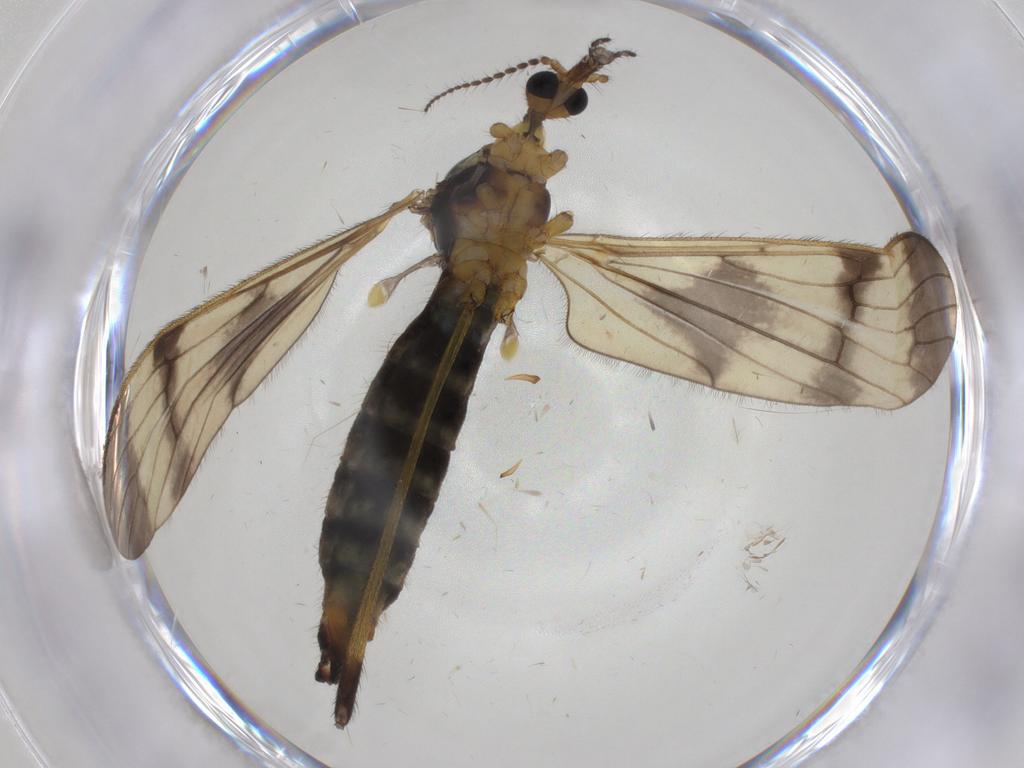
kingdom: Animalia
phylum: Arthropoda
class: Insecta
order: Diptera
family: Limoniidae
